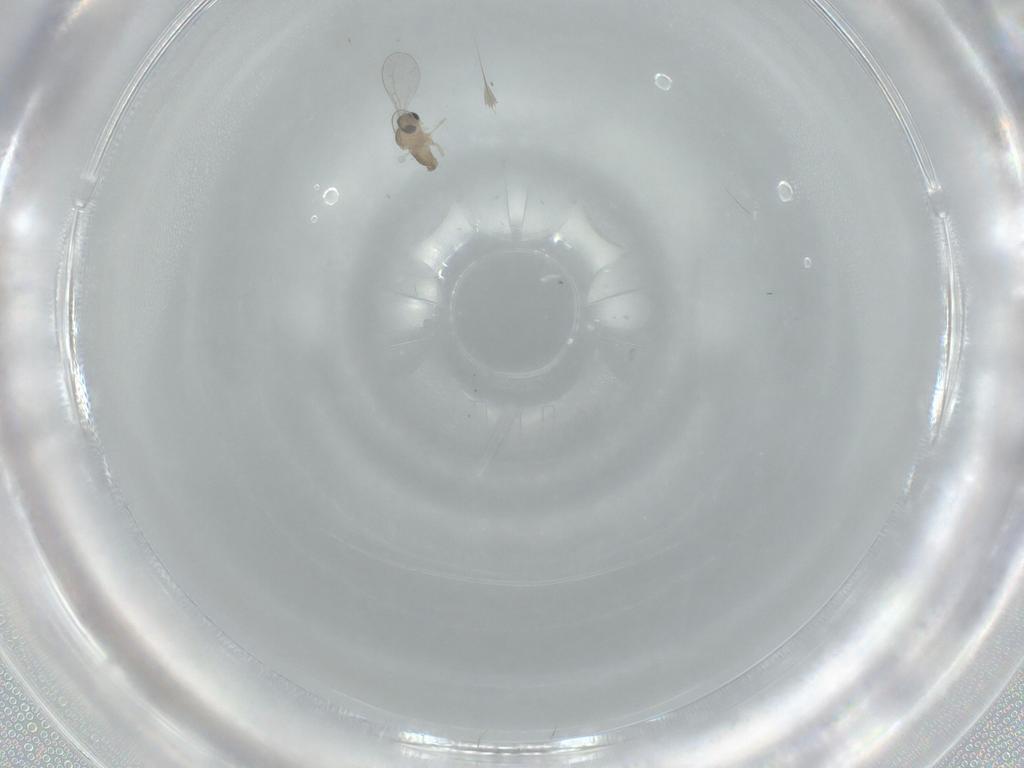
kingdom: Animalia
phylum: Arthropoda
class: Insecta
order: Diptera
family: Cecidomyiidae
